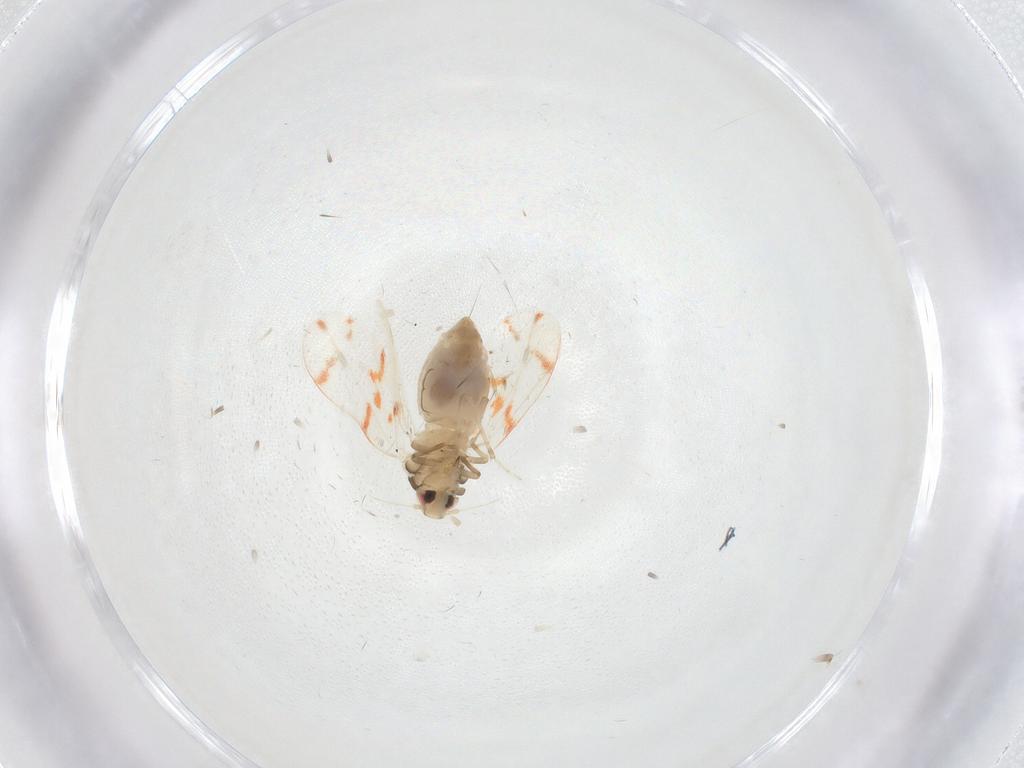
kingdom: Animalia
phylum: Arthropoda
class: Insecta
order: Hemiptera
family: Aleyrodidae
